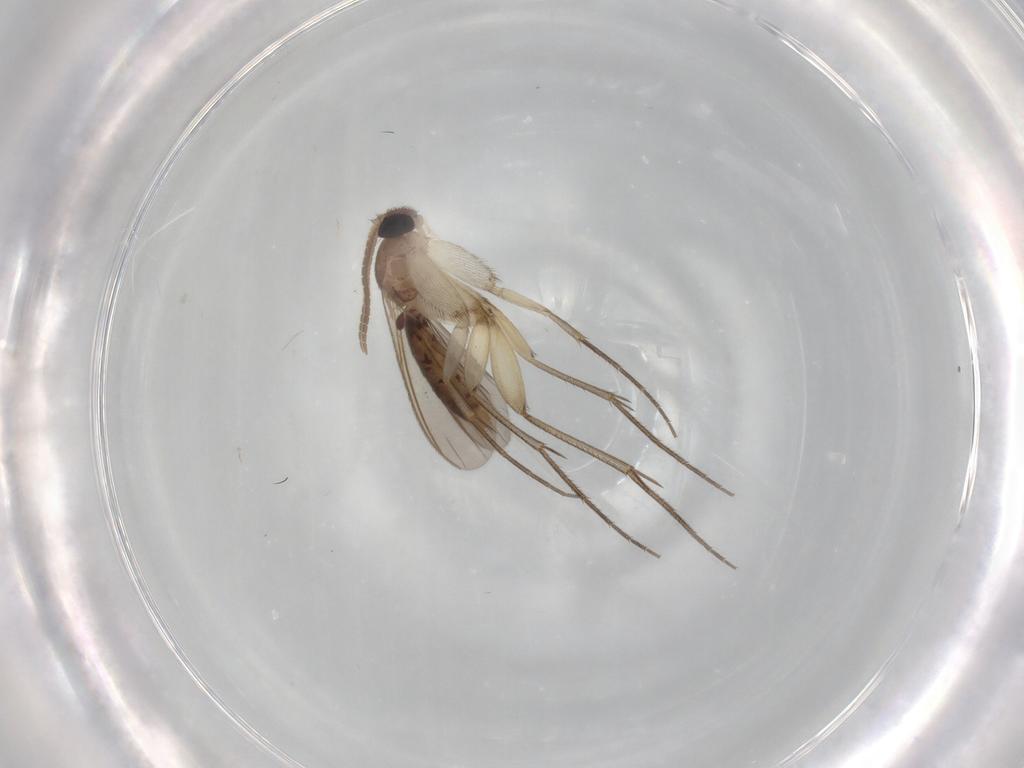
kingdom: Animalia
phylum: Arthropoda
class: Insecta
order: Diptera
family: Mycetophilidae
